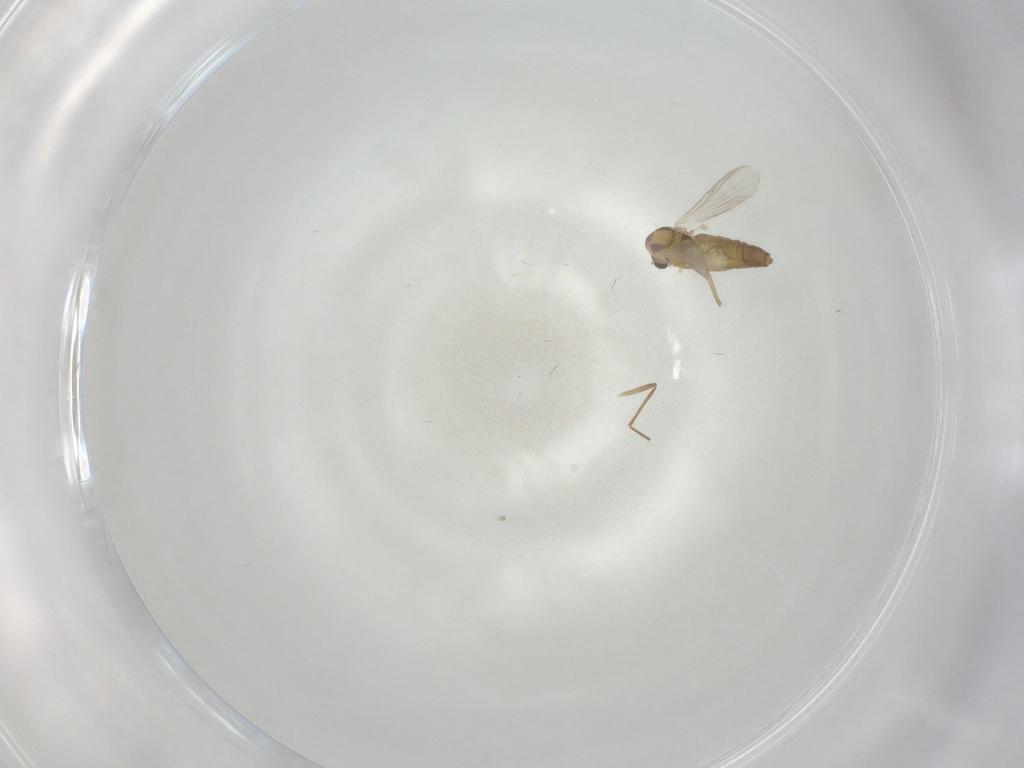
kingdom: Animalia
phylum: Arthropoda
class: Insecta
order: Diptera
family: Chironomidae
